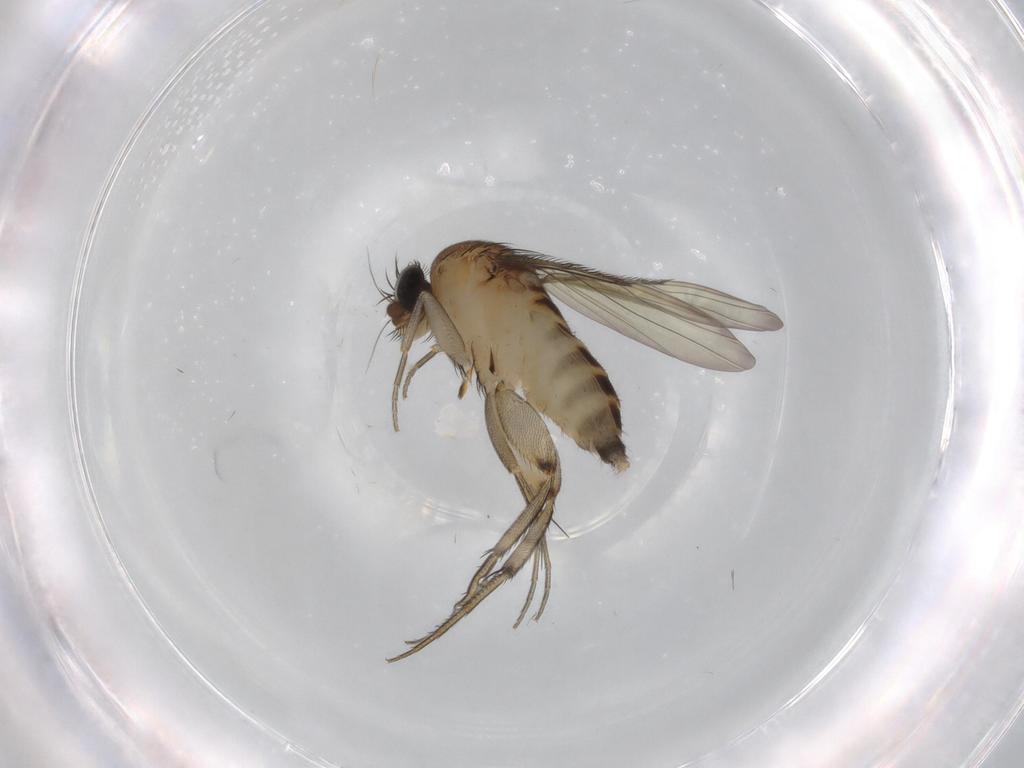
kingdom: Animalia
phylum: Arthropoda
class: Insecta
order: Diptera
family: Phoridae
